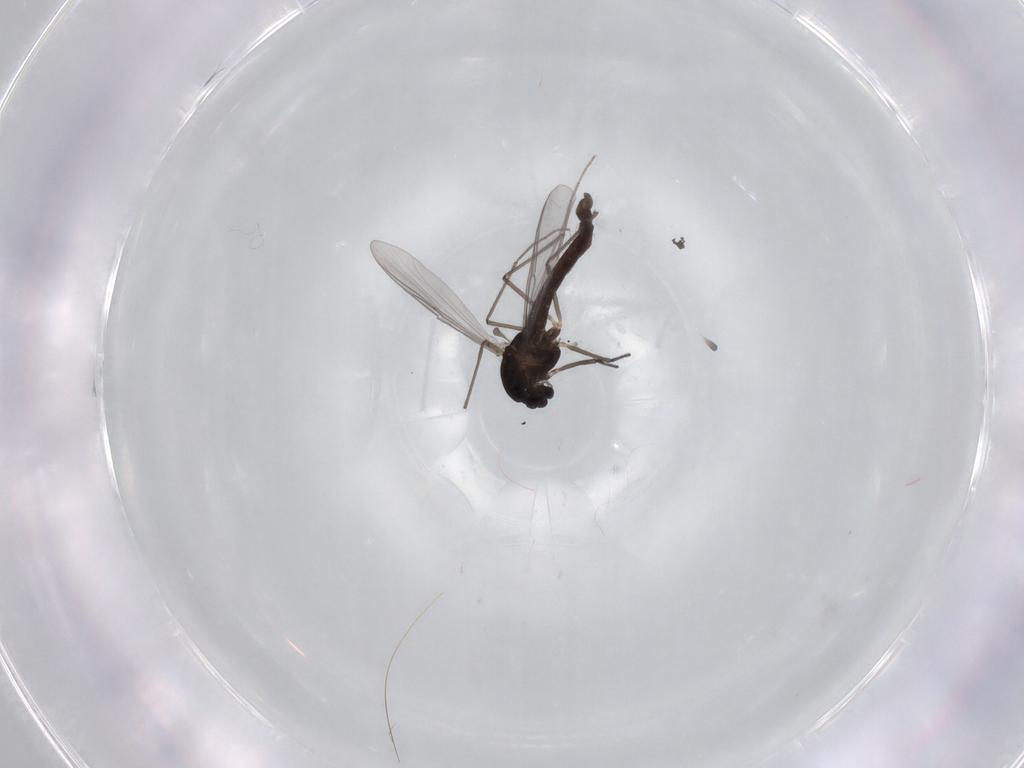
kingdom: Animalia
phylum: Arthropoda
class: Insecta
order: Diptera
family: Chironomidae
